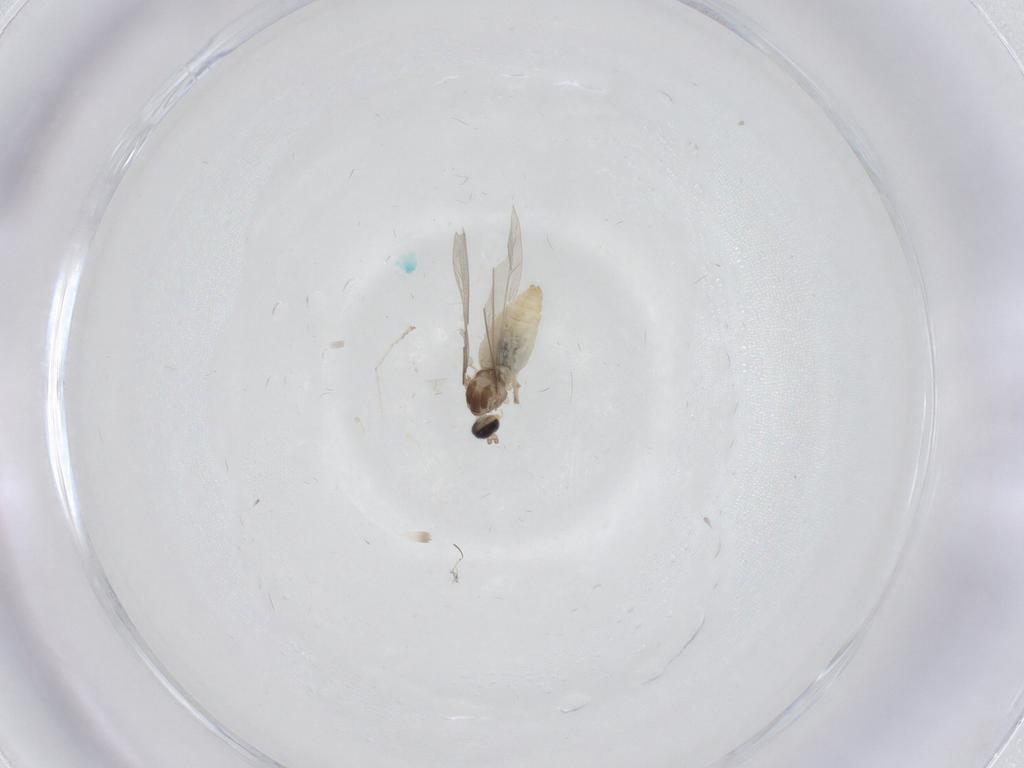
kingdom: Animalia
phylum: Arthropoda
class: Insecta
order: Diptera
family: Cecidomyiidae
